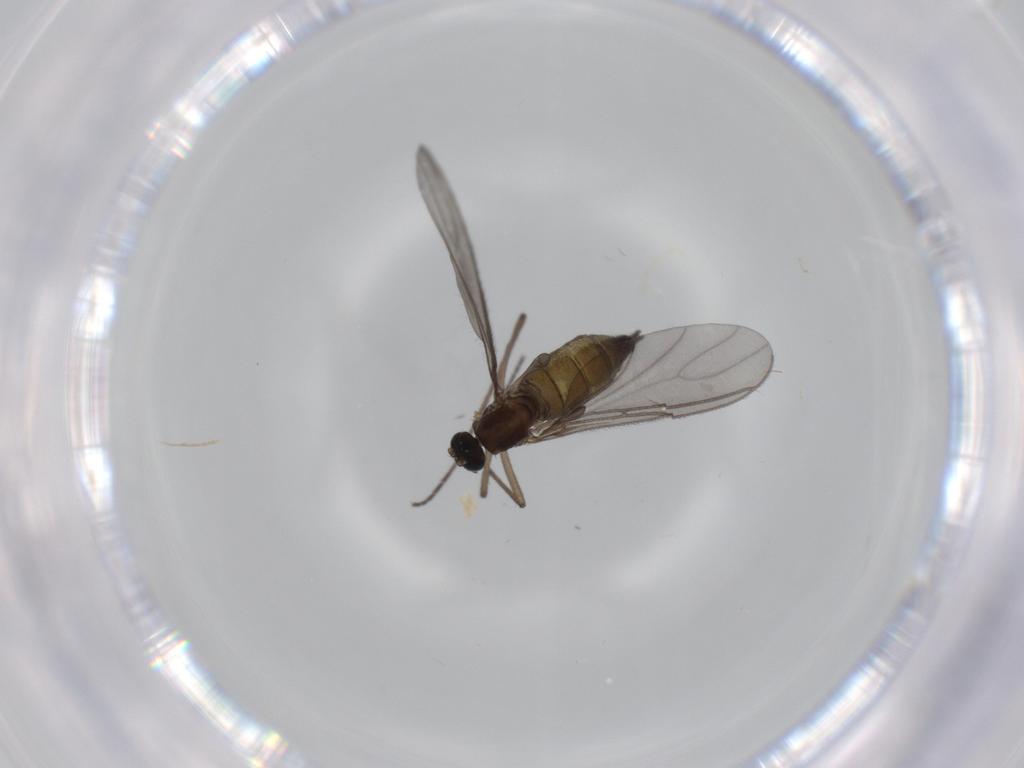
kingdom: Animalia
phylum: Arthropoda
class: Insecta
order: Diptera
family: Sciaridae
